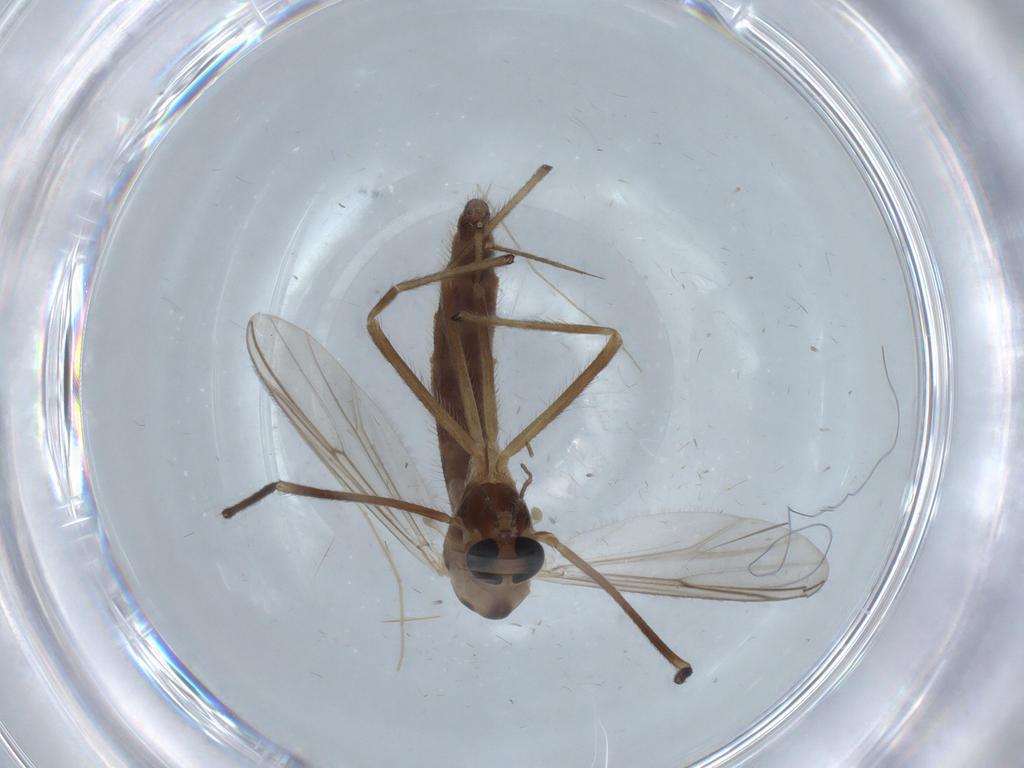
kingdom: Animalia
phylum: Arthropoda
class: Insecta
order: Diptera
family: Chironomidae
